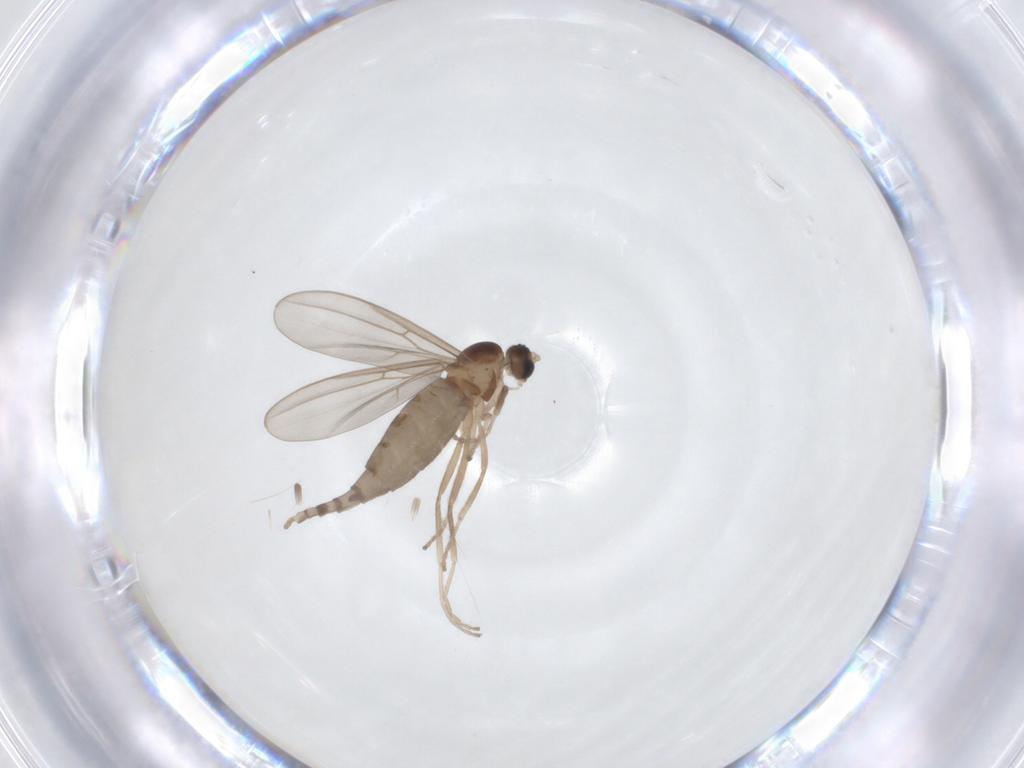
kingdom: Animalia
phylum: Arthropoda
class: Insecta
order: Diptera
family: Cecidomyiidae
